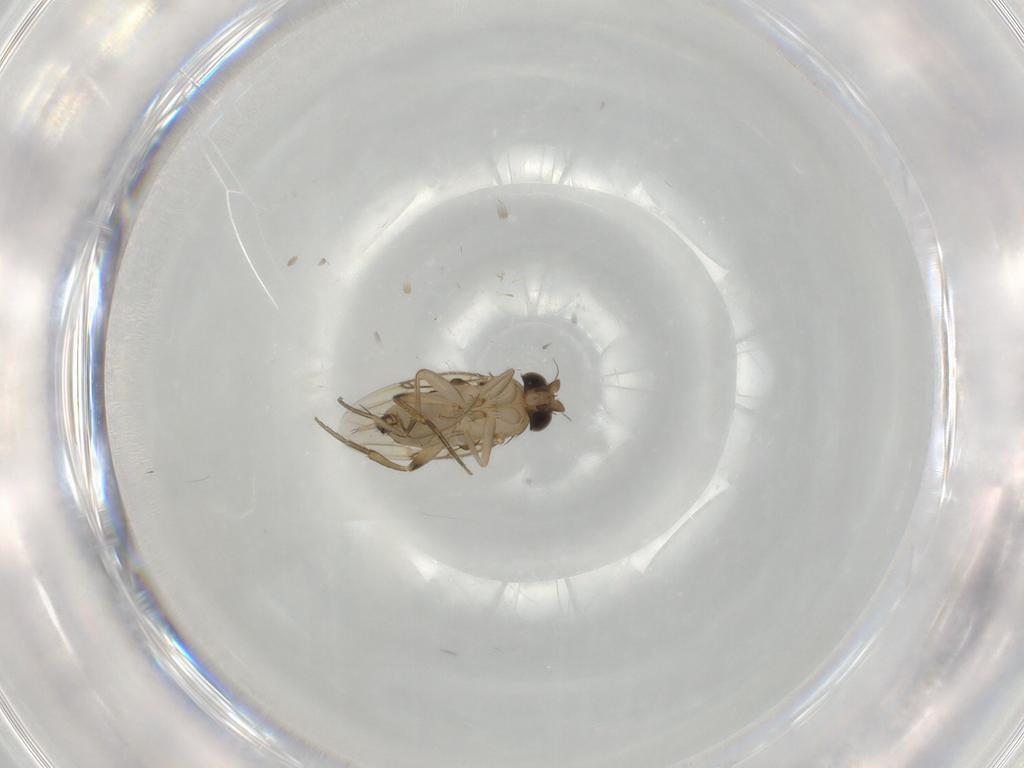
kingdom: Animalia
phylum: Arthropoda
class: Insecta
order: Diptera
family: Phoridae
